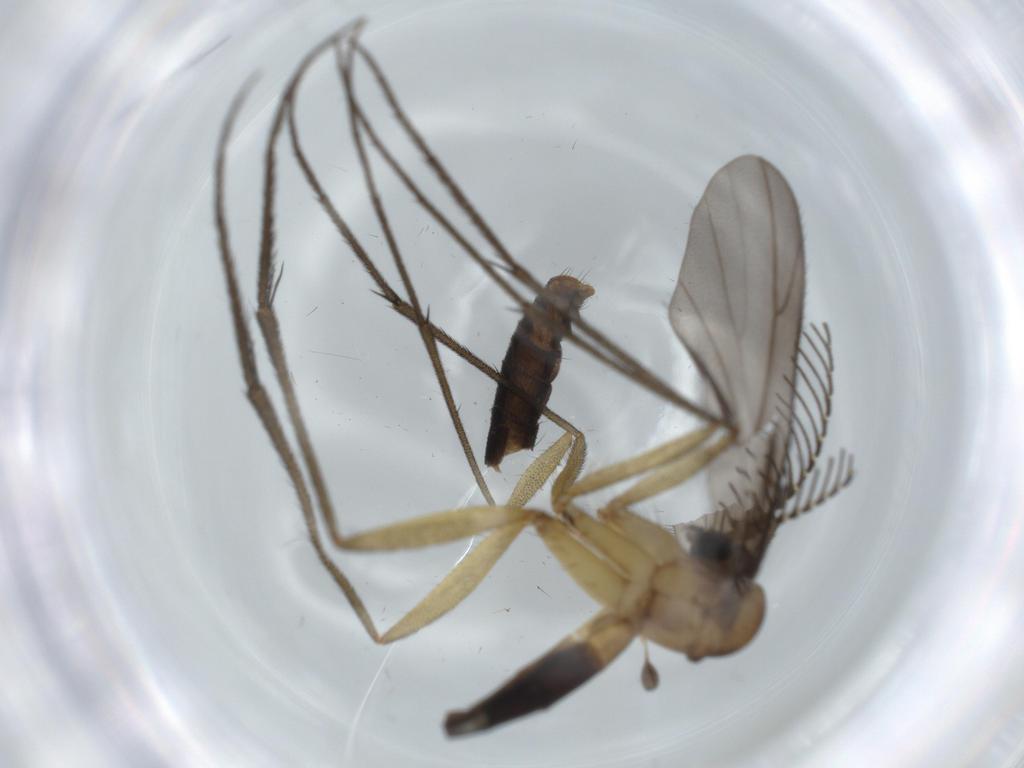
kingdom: Animalia
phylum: Arthropoda
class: Insecta
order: Diptera
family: Ditomyiidae
